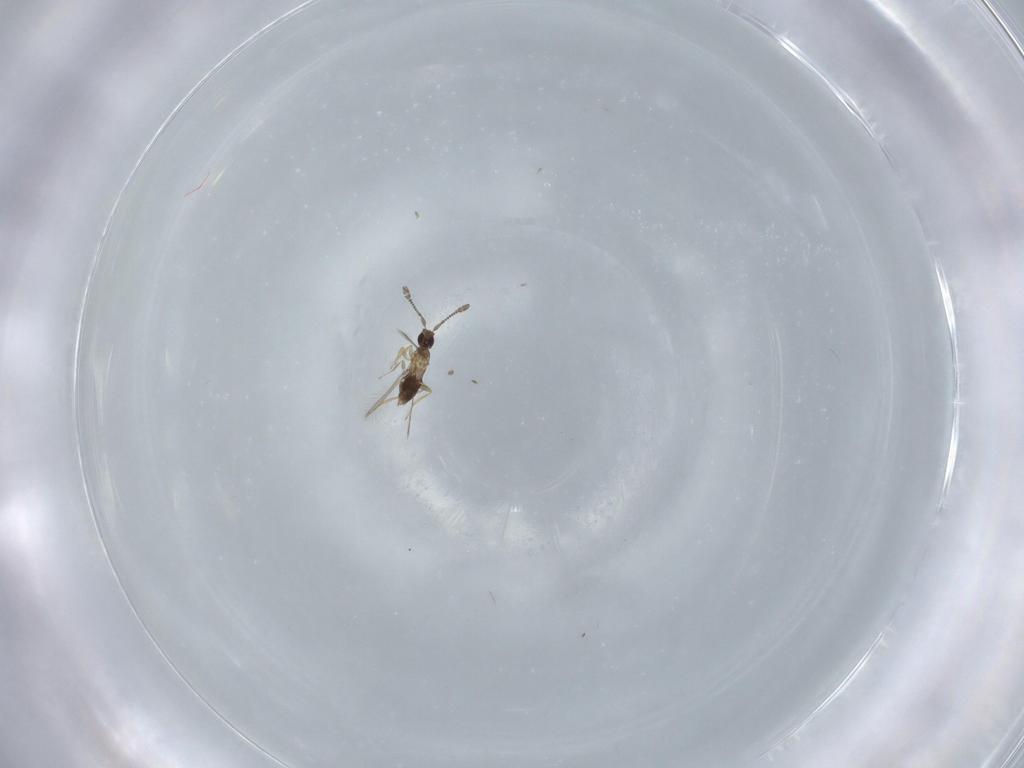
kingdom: Animalia
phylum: Arthropoda
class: Insecta
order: Hymenoptera
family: Mymaridae
